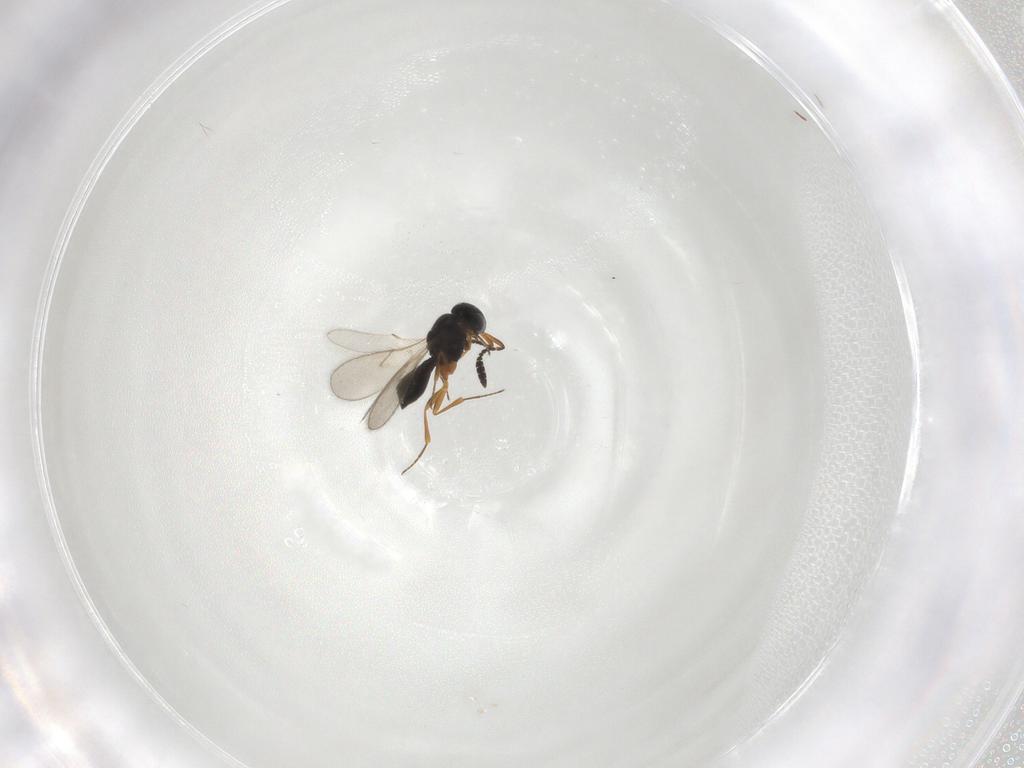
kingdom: Animalia
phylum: Arthropoda
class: Insecta
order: Hymenoptera
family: Scelionidae
